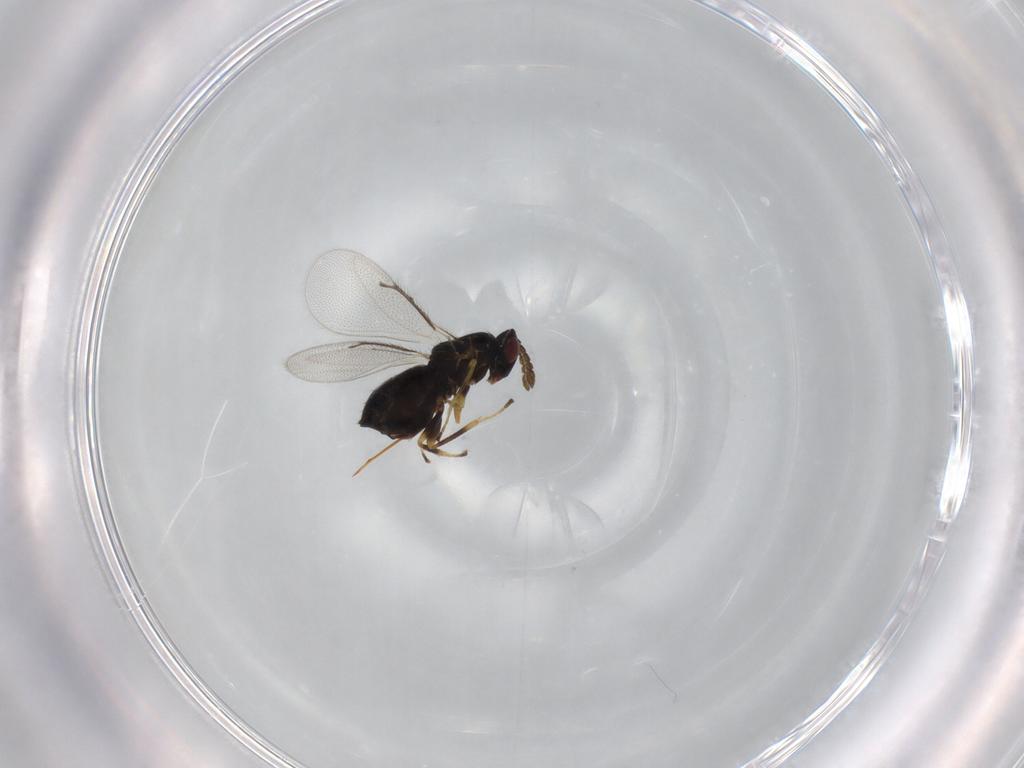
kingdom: Animalia
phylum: Arthropoda
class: Insecta
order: Hymenoptera
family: Eulophidae
